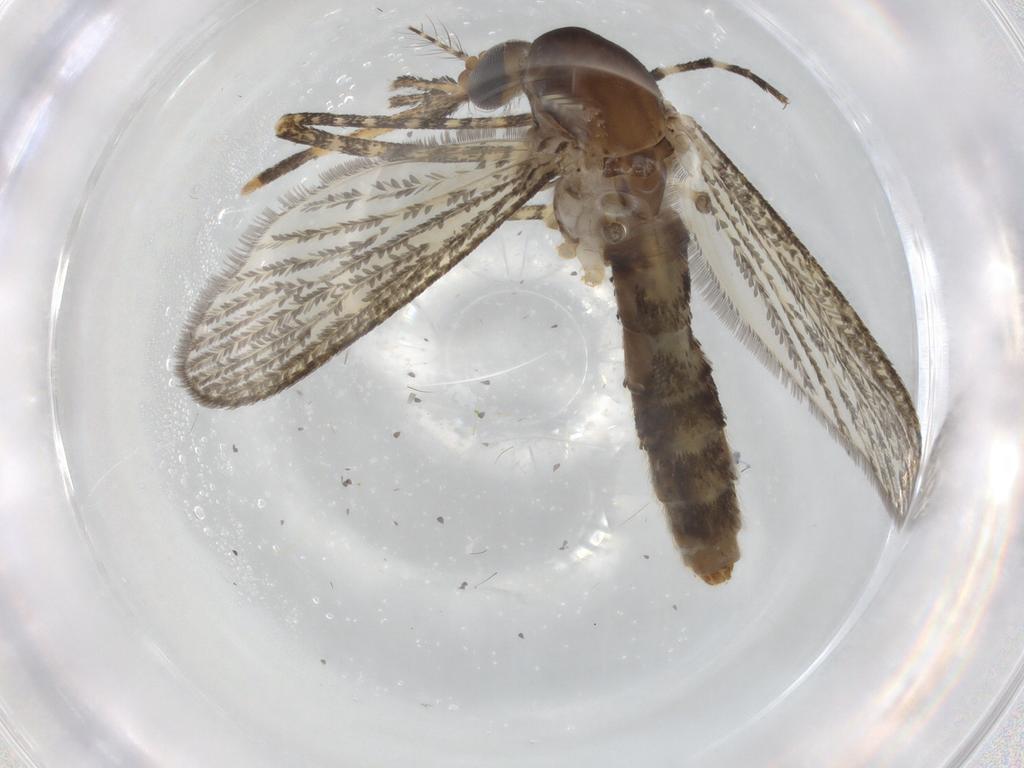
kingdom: Animalia
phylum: Arthropoda
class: Insecta
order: Diptera
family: Cecidomyiidae
